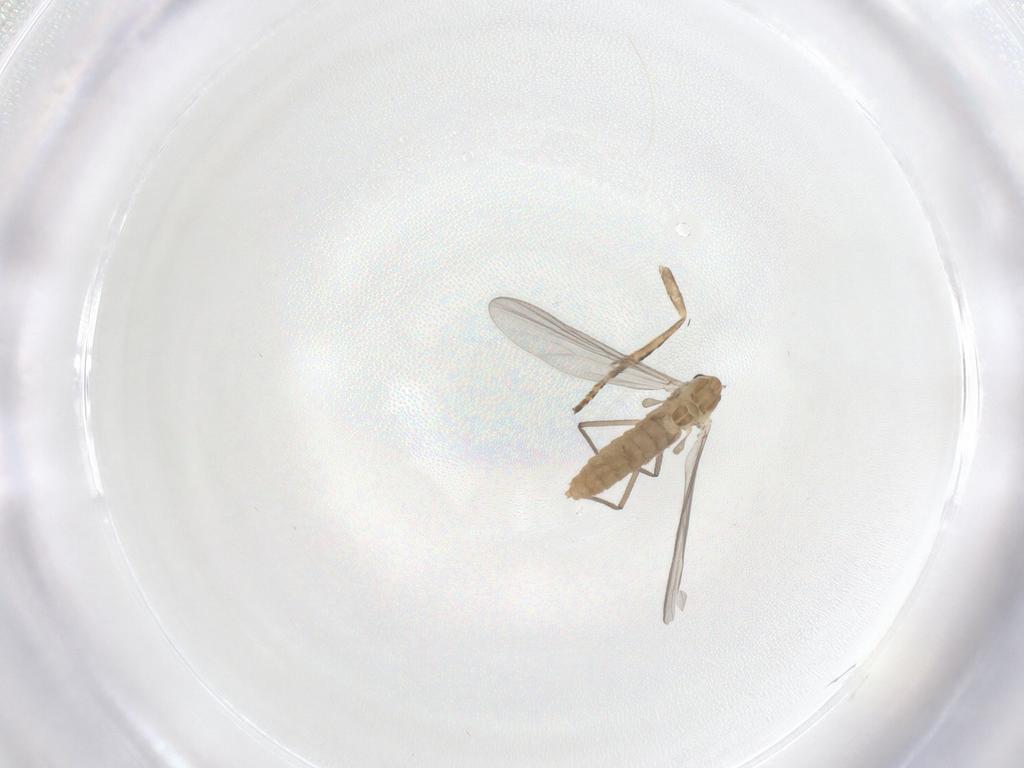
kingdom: Animalia
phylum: Arthropoda
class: Insecta
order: Diptera
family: Chironomidae
